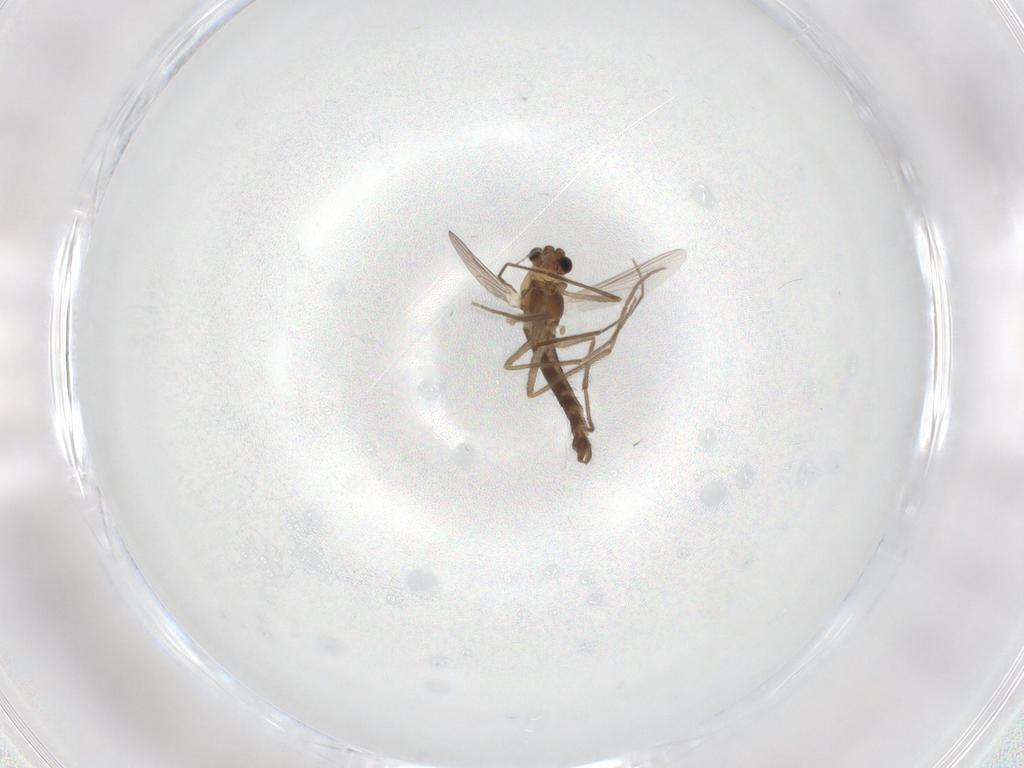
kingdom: Animalia
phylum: Arthropoda
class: Insecta
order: Diptera
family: Chironomidae
